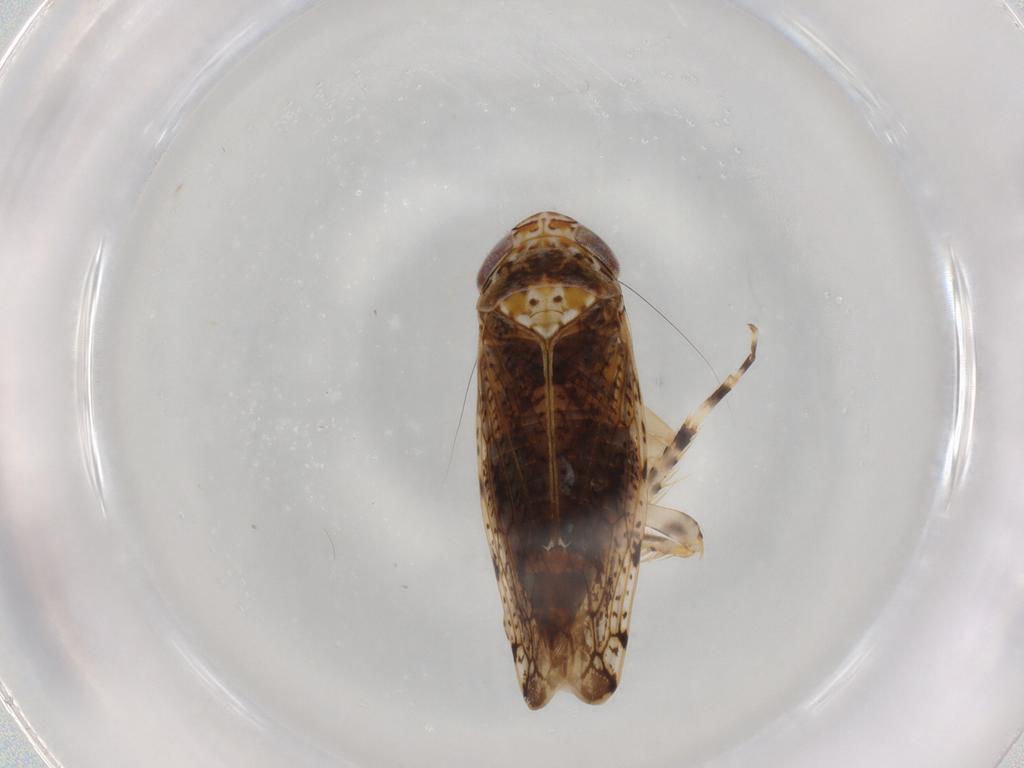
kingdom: Animalia
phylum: Arthropoda
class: Insecta
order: Hemiptera
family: Cicadellidae
